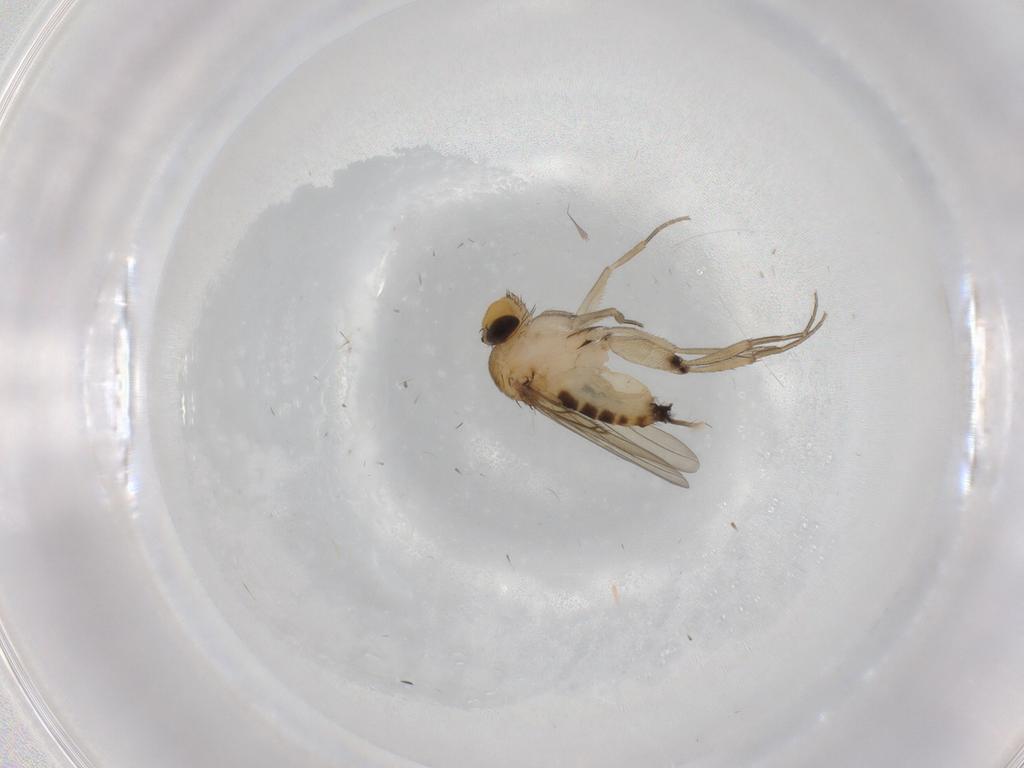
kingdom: Animalia
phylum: Arthropoda
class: Insecta
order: Diptera
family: Phoridae
